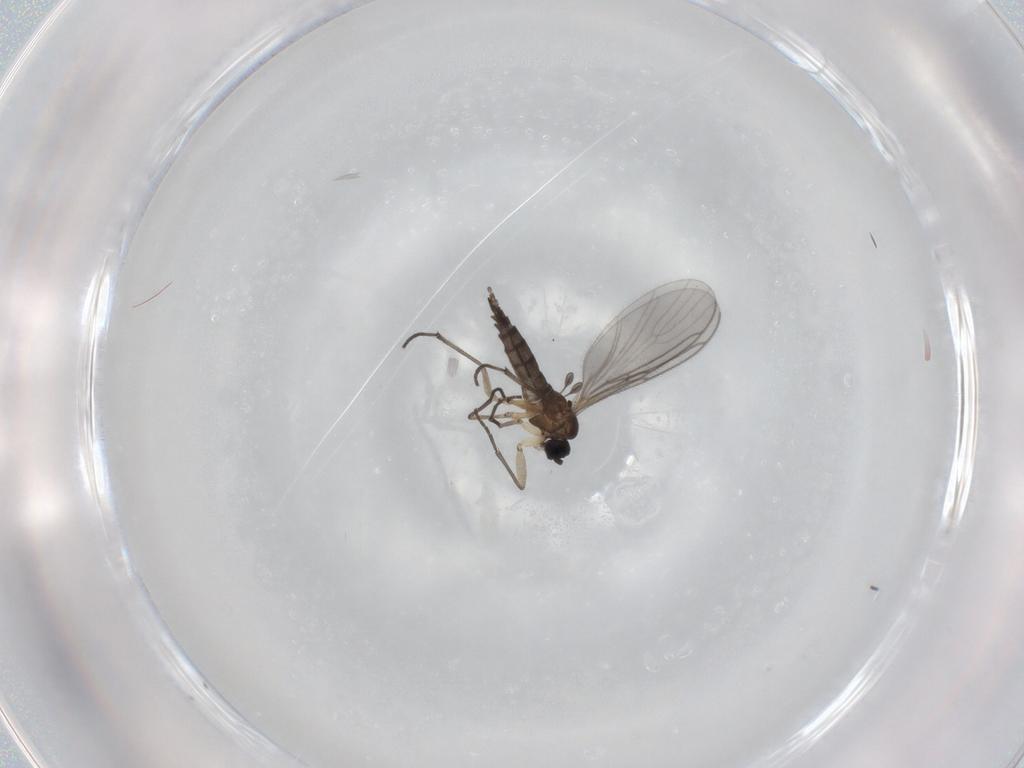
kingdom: Animalia
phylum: Arthropoda
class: Insecta
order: Diptera
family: Sciaridae
